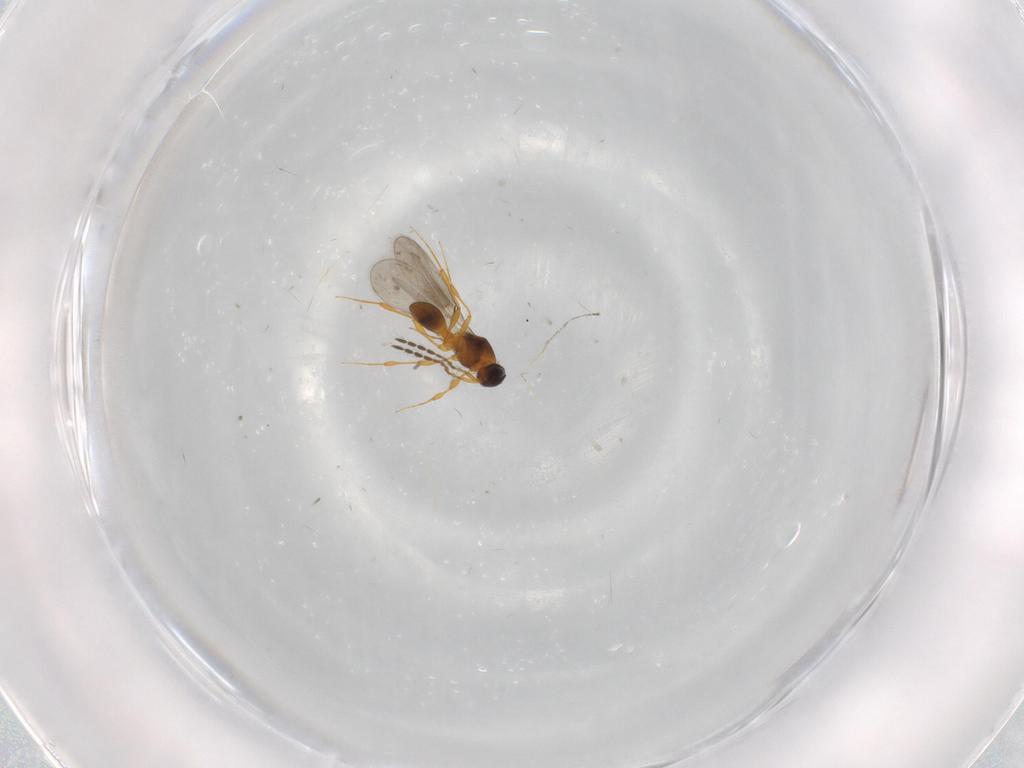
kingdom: Animalia
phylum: Arthropoda
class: Insecta
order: Hymenoptera
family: Platygastridae
